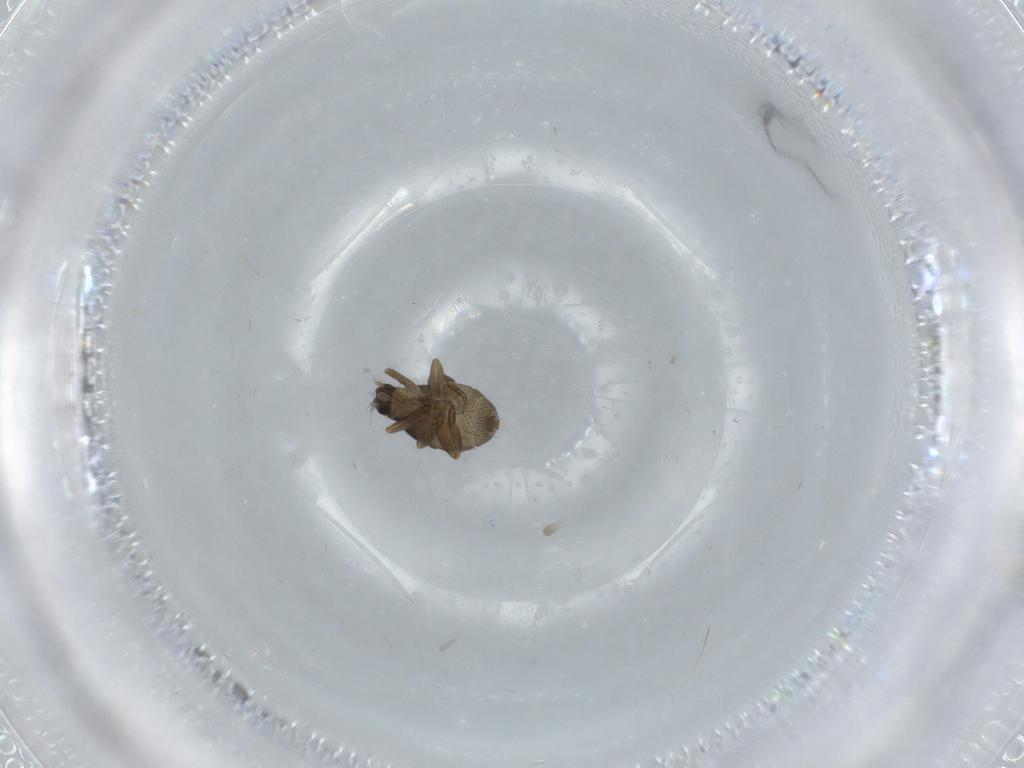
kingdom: Animalia
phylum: Arthropoda
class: Insecta
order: Diptera
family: Phoridae
